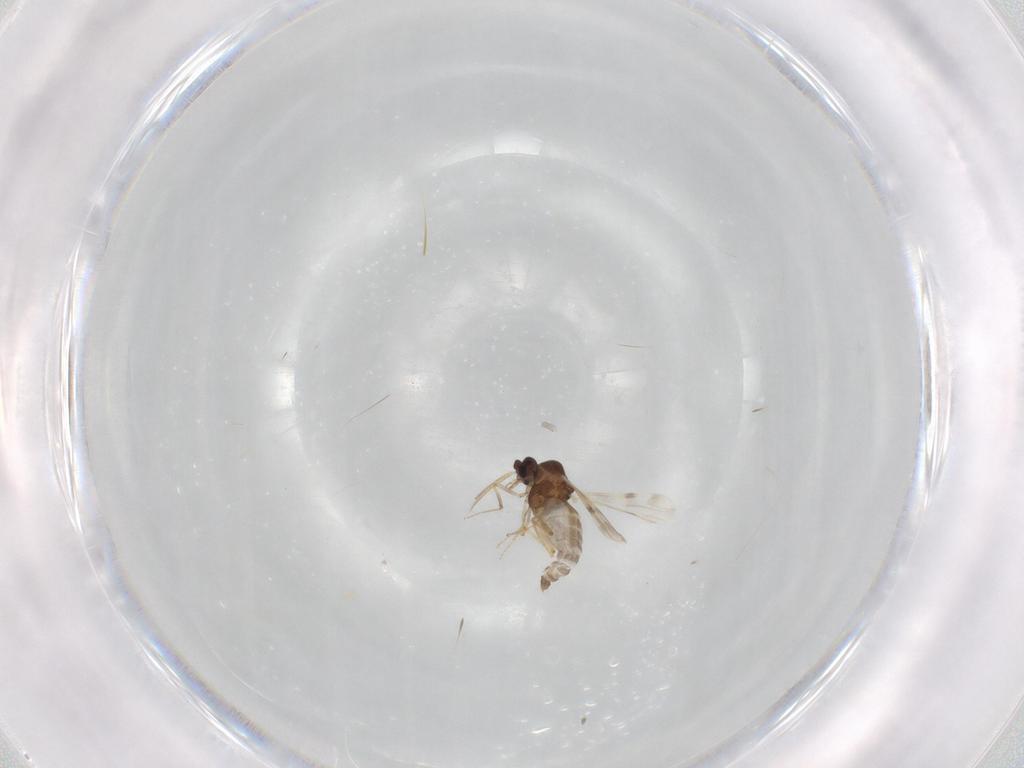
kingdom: Animalia
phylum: Arthropoda
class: Insecta
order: Diptera
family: Ceratopogonidae
